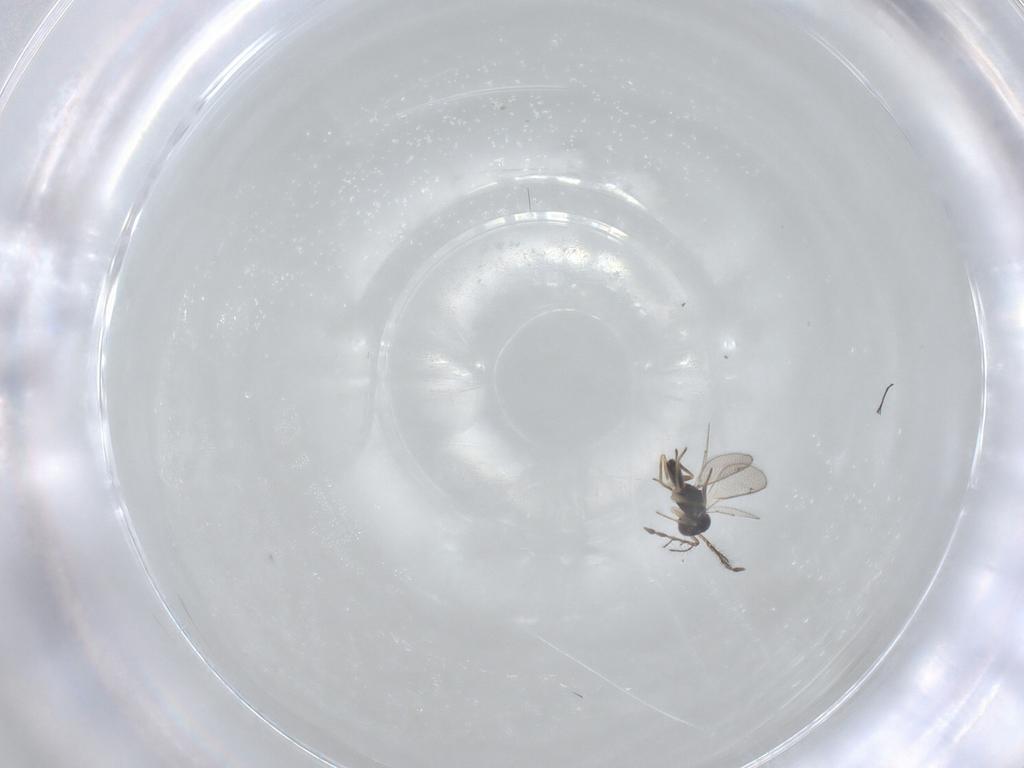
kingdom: Animalia
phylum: Arthropoda
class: Insecta
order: Hymenoptera
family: Eulophidae
